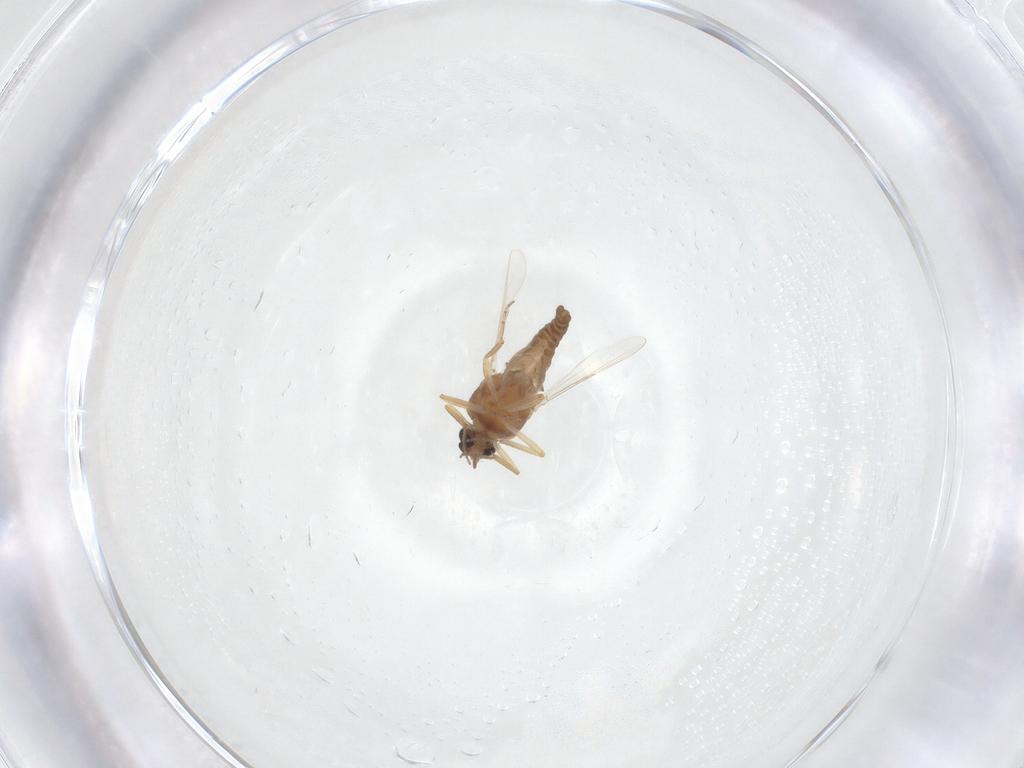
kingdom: Animalia
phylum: Arthropoda
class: Insecta
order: Diptera
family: Ceratopogonidae
